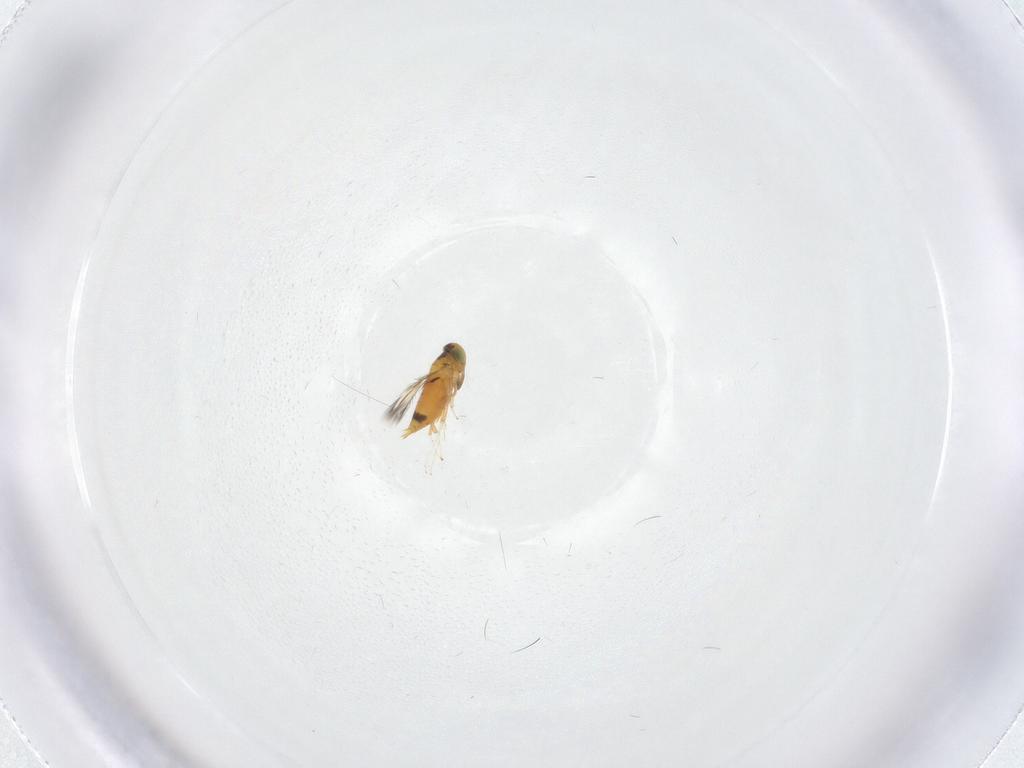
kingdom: Animalia
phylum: Arthropoda
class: Insecta
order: Hymenoptera
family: Signiphoridae
